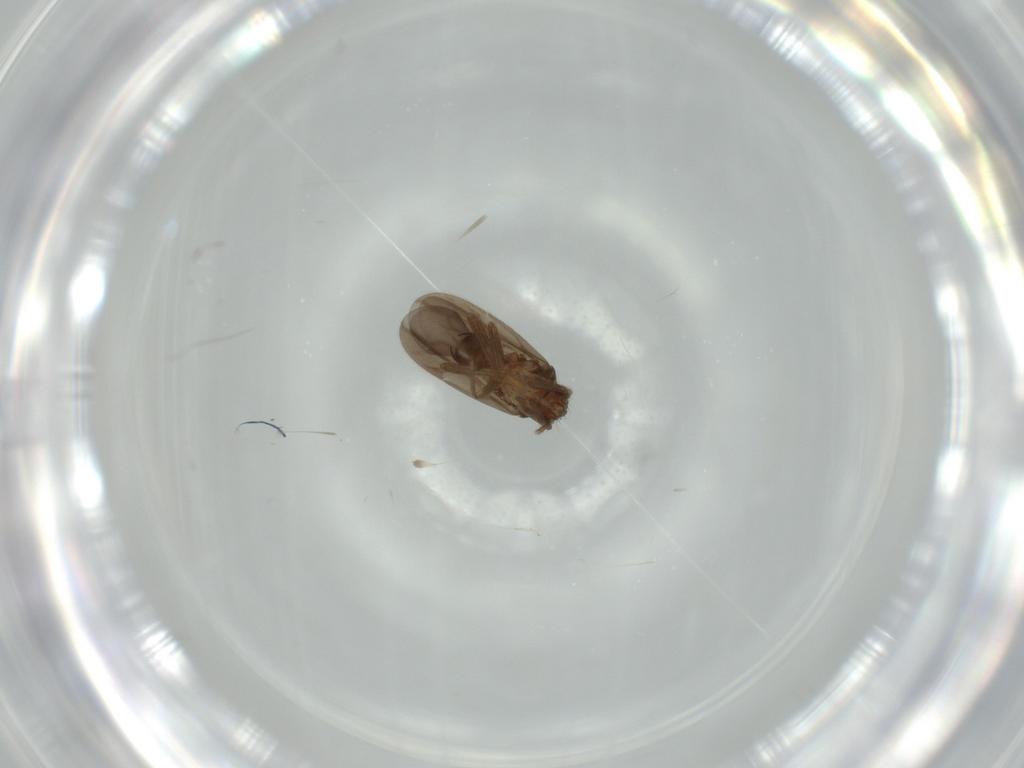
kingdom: Animalia
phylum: Arthropoda
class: Insecta
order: Hemiptera
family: Ceratocombidae
